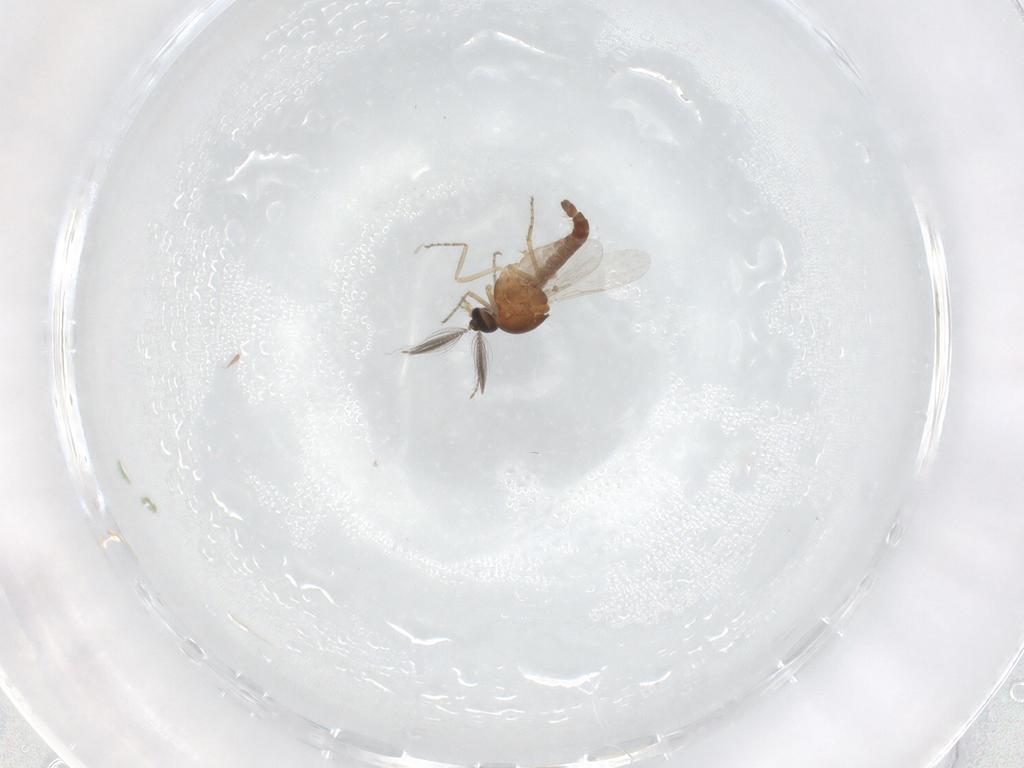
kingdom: Animalia
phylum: Arthropoda
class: Insecta
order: Diptera
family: Ceratopogonidae
